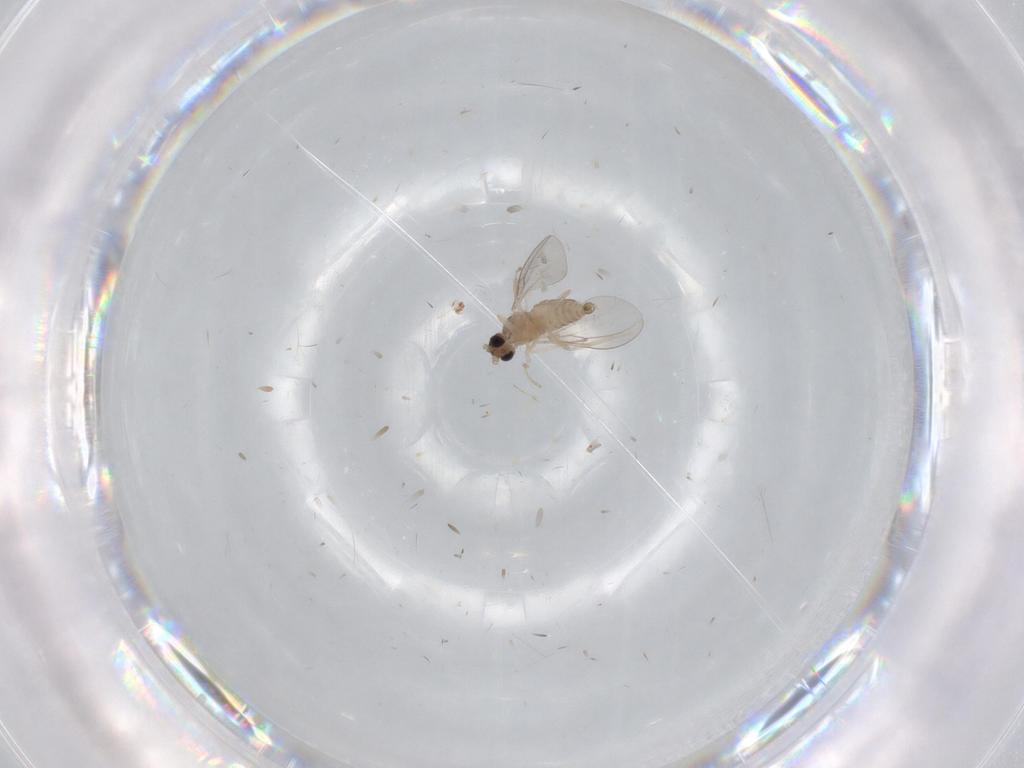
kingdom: Animalia
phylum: Arthropoda
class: Insecta
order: Diptera
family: Cecidomyiidae
